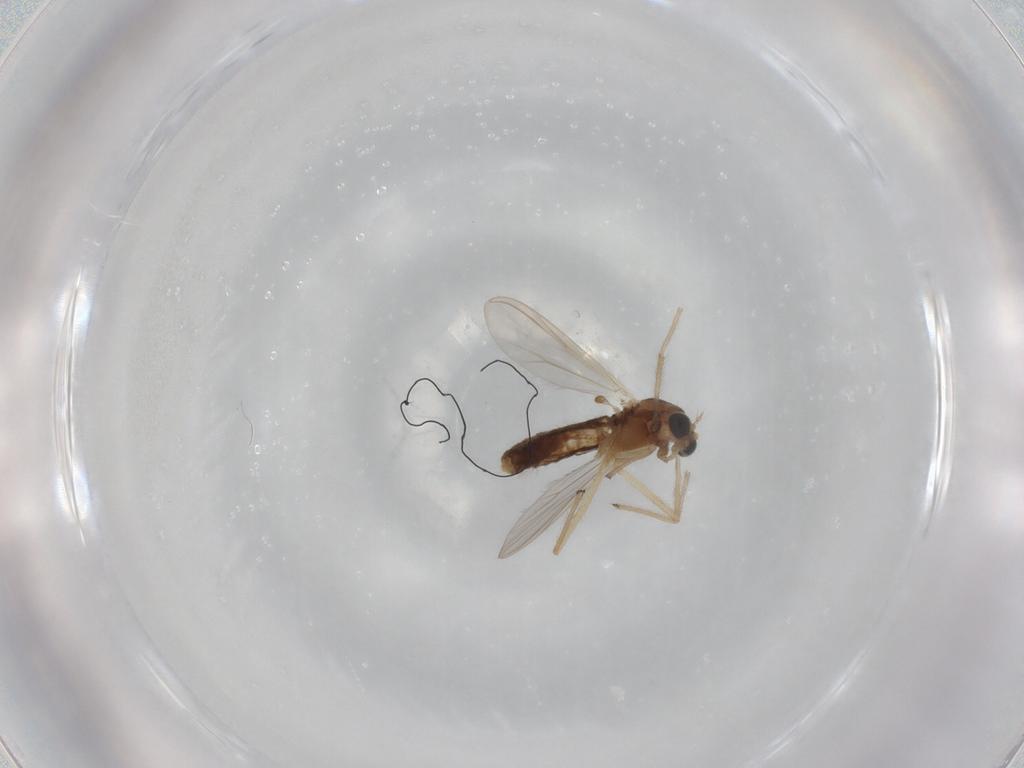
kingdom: Animalia
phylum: Arthropoda
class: Insecta
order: Diptera
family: Chironomidae
